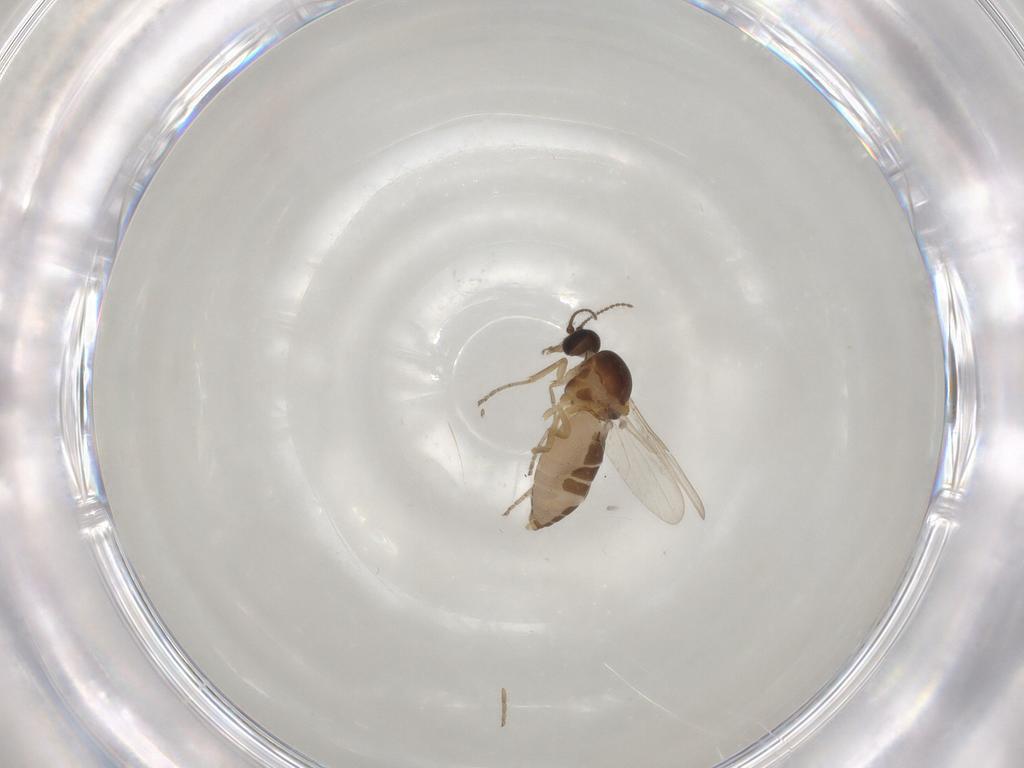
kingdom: Animalia
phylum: Arthropoda
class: Insecta
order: Diptera
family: Ceratopogonidae
